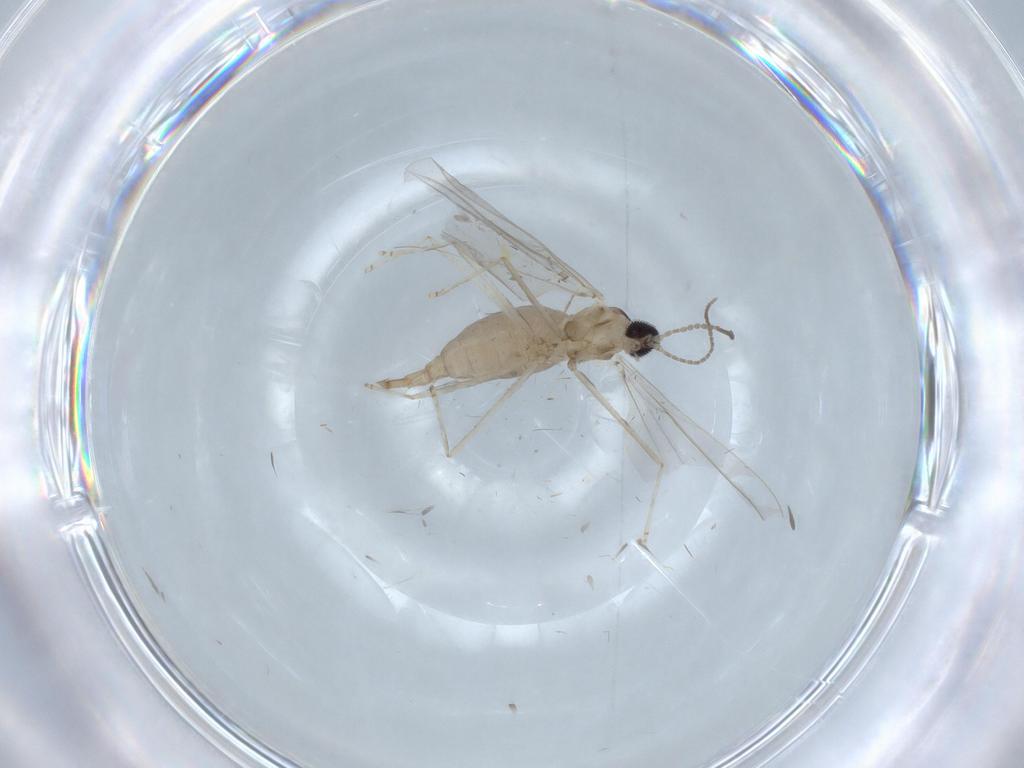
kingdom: Animalia
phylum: Arthropoda
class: Insecta
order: Diptera
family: Cecidomyiidae
